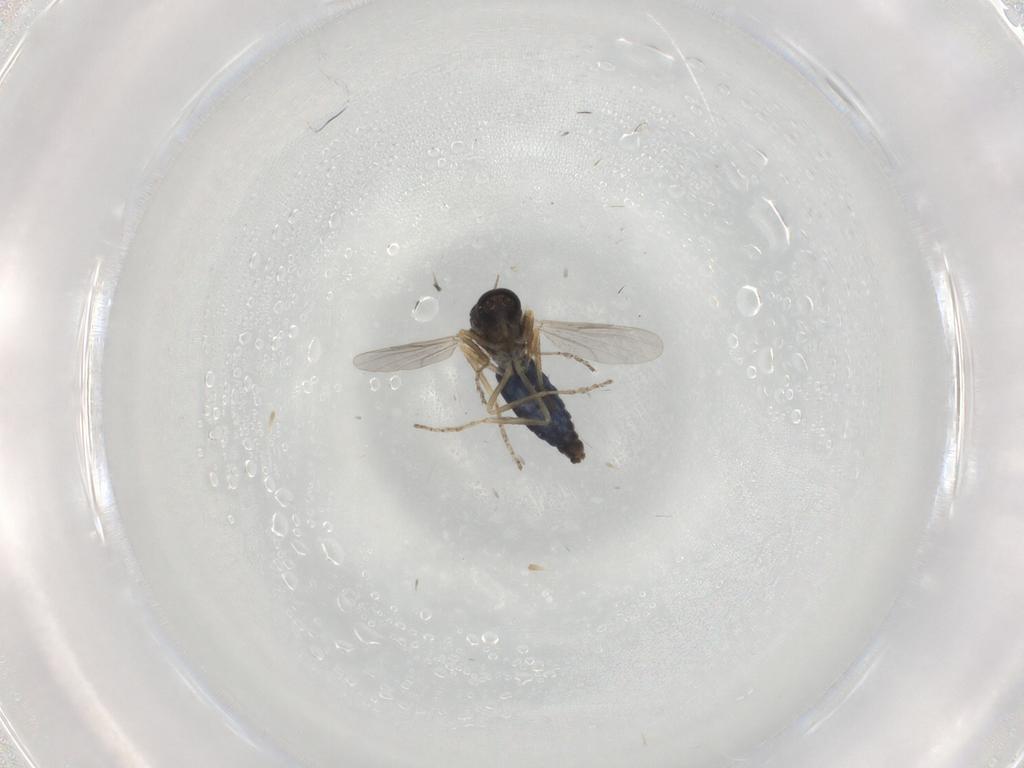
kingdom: Animalia
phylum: Arthropoda
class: Insecta
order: Diptera
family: Ceratopogonidae
